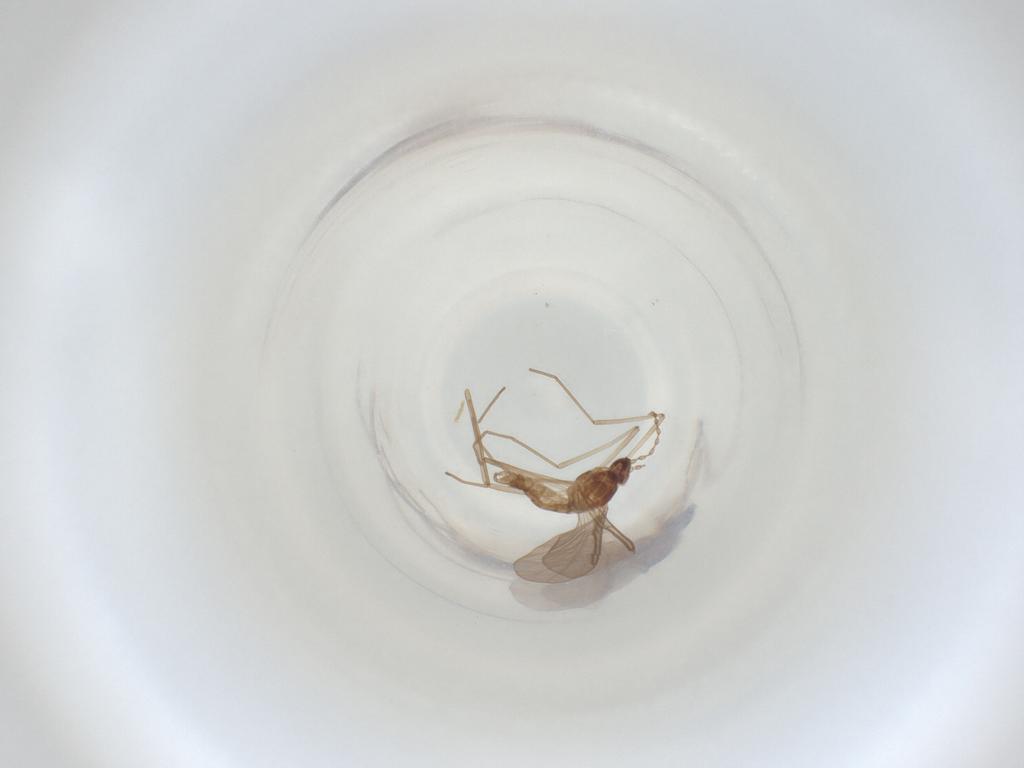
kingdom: Animalia
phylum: Arthropoda
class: Insecta
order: Diptera
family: Cecidomyiidae
